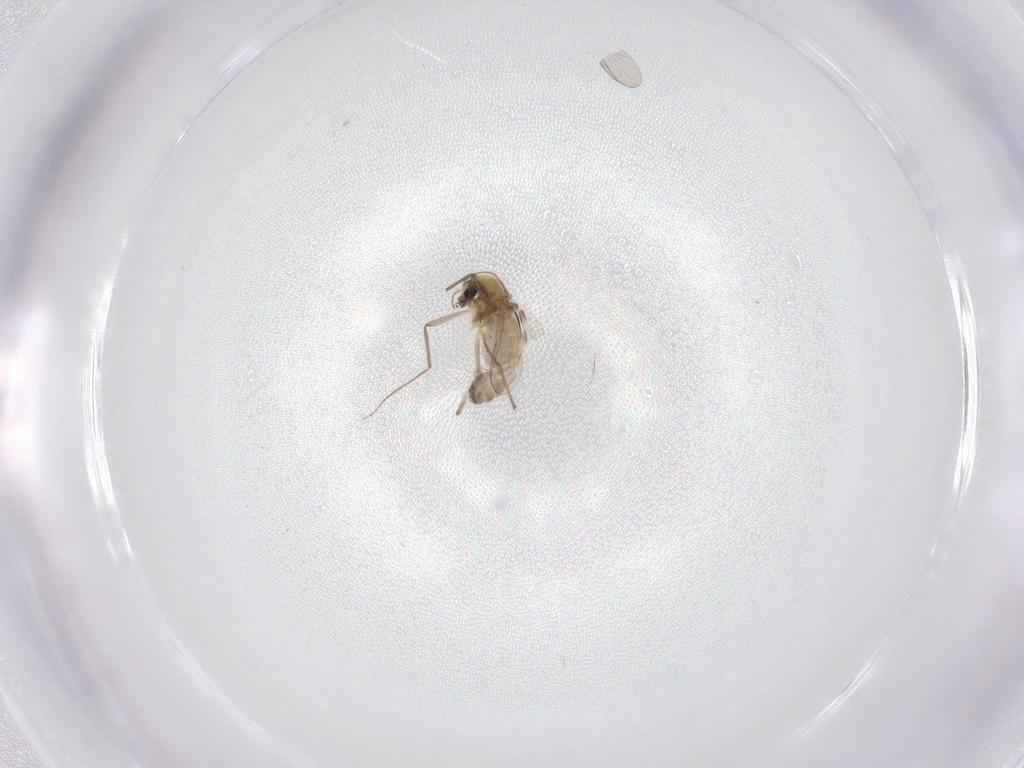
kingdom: Animalia
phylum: Arthropoda
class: Insecta
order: Diptera
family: Chironomidae
